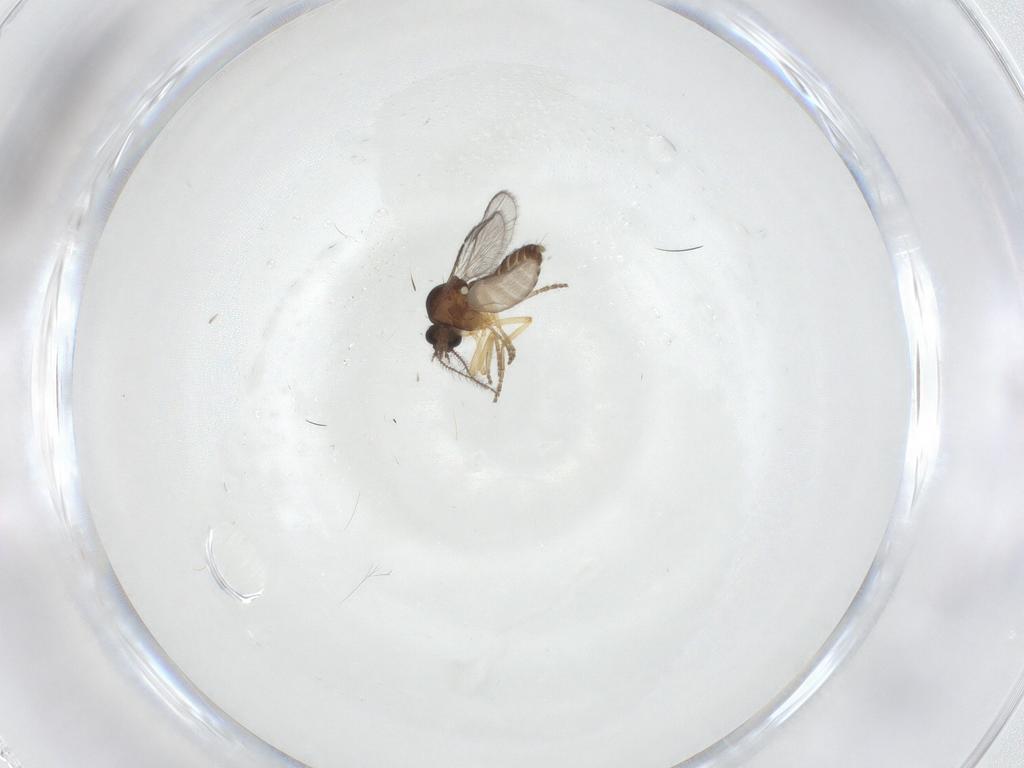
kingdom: Animalia
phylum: Arthropoda
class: Insecta
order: Diptera
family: Ceratopogonidae
